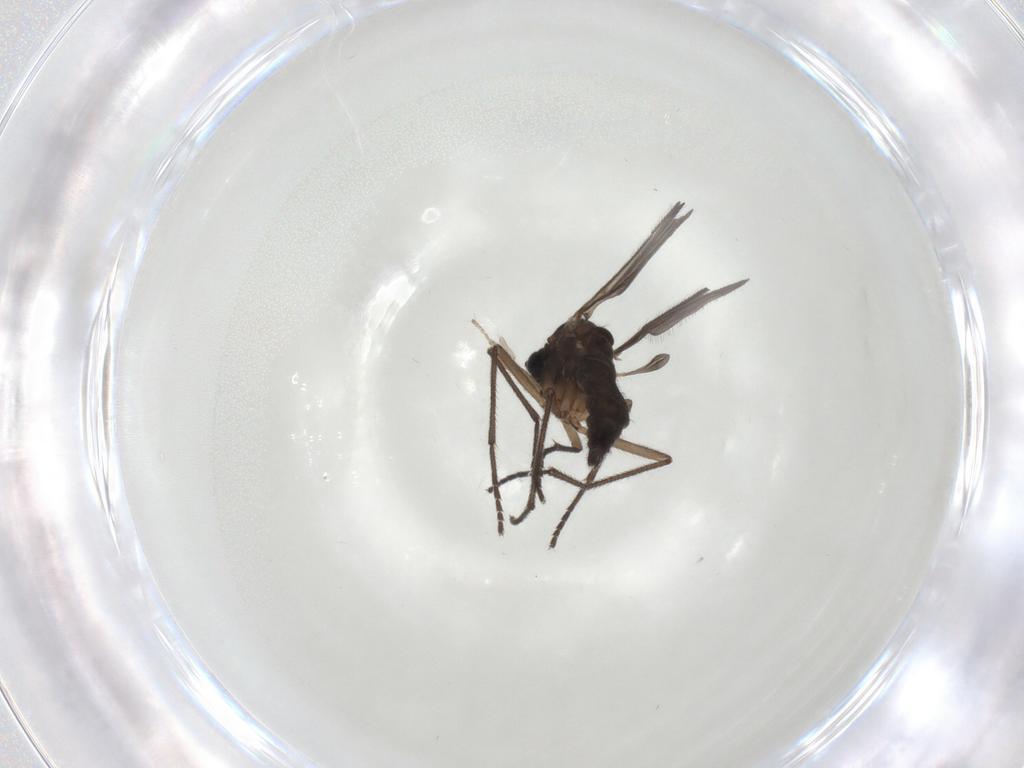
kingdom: Animalia
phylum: Arthropoda
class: Insecta
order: Diptera
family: Sciaridae
